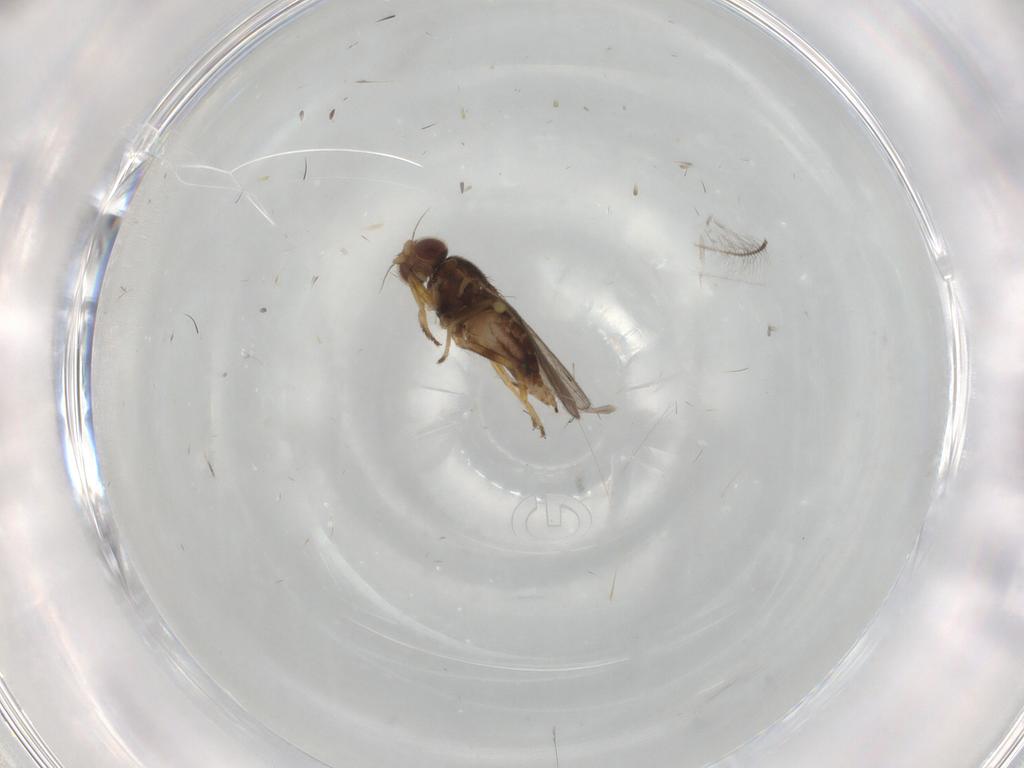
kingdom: Animalia
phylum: Arthropoda
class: Insecta
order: Diptera
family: Chloropidae
